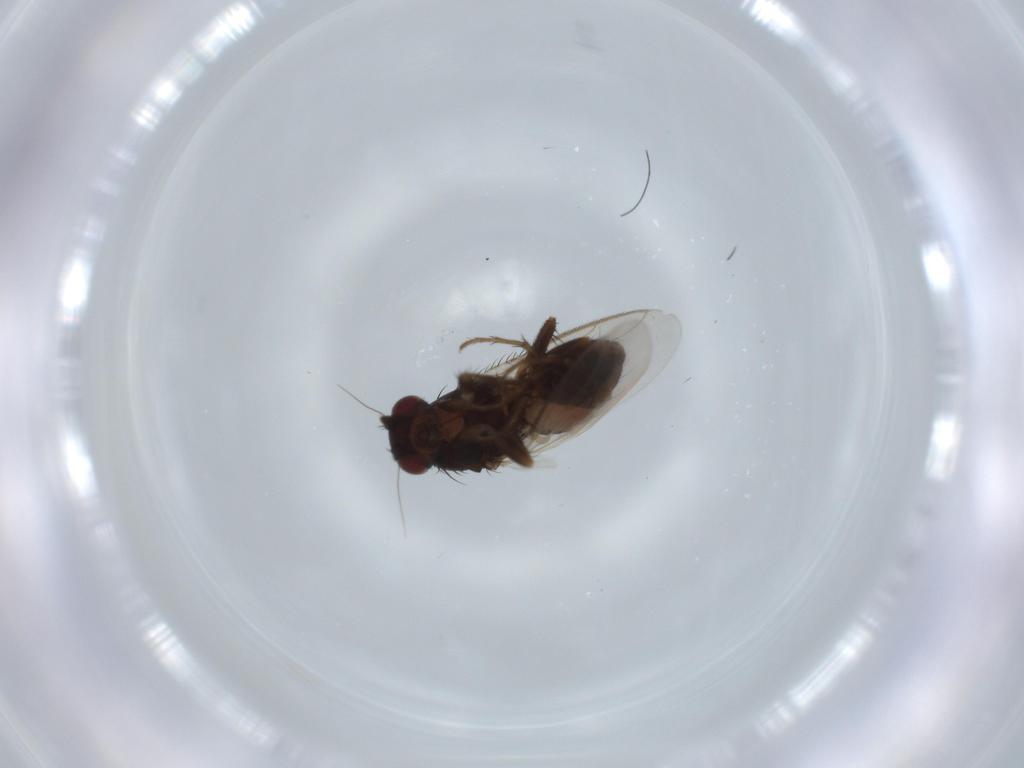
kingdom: Animalia
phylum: Arthropoda
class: Insecta
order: Diptera
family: Sphaeroceridae
